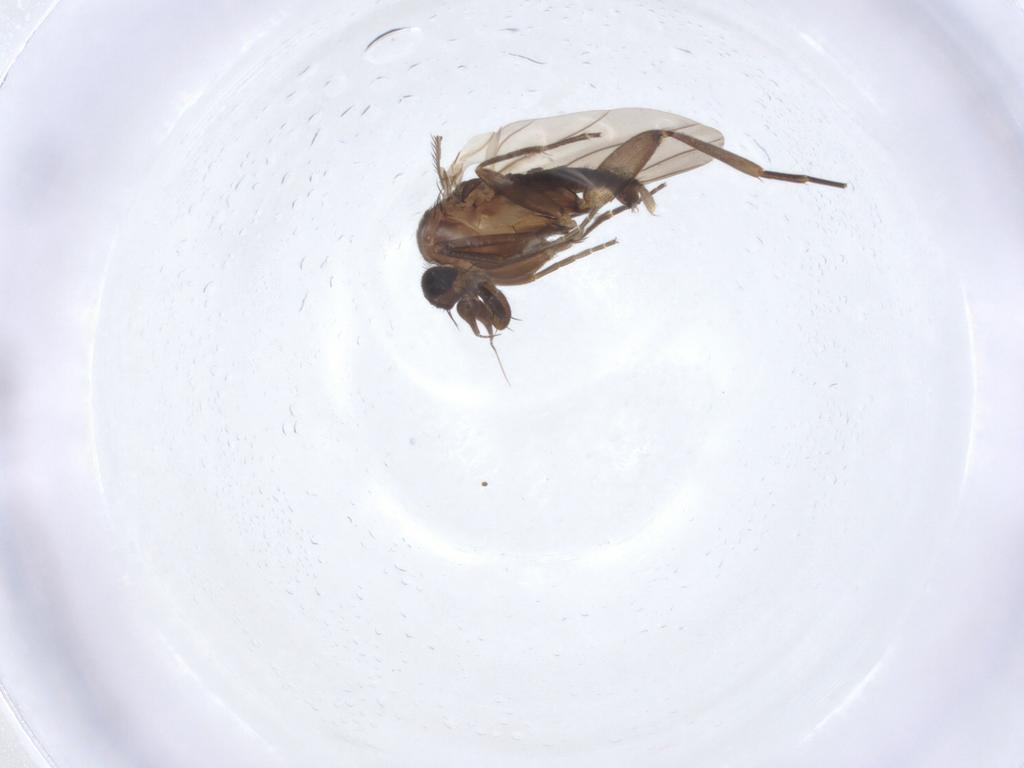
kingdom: Animalia
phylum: Arthropoda
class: Insecta
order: Diptera
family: Phoridae
